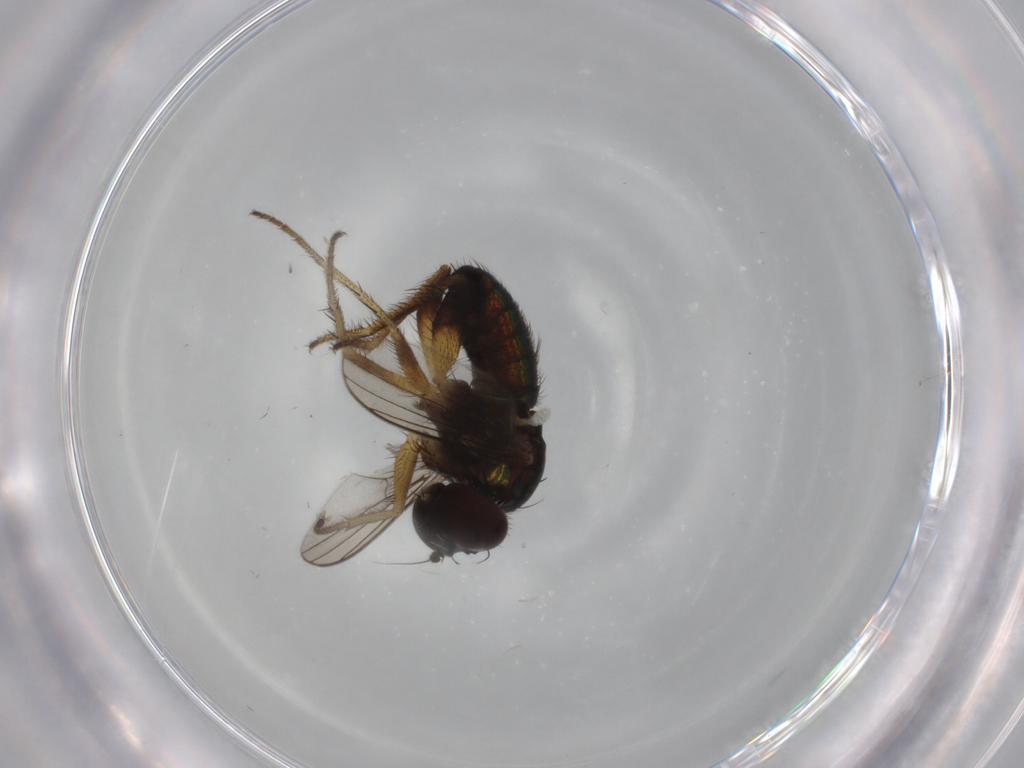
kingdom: Animalia
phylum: Arthropoda
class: Insecta
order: Diptera
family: Dolichopodidae
